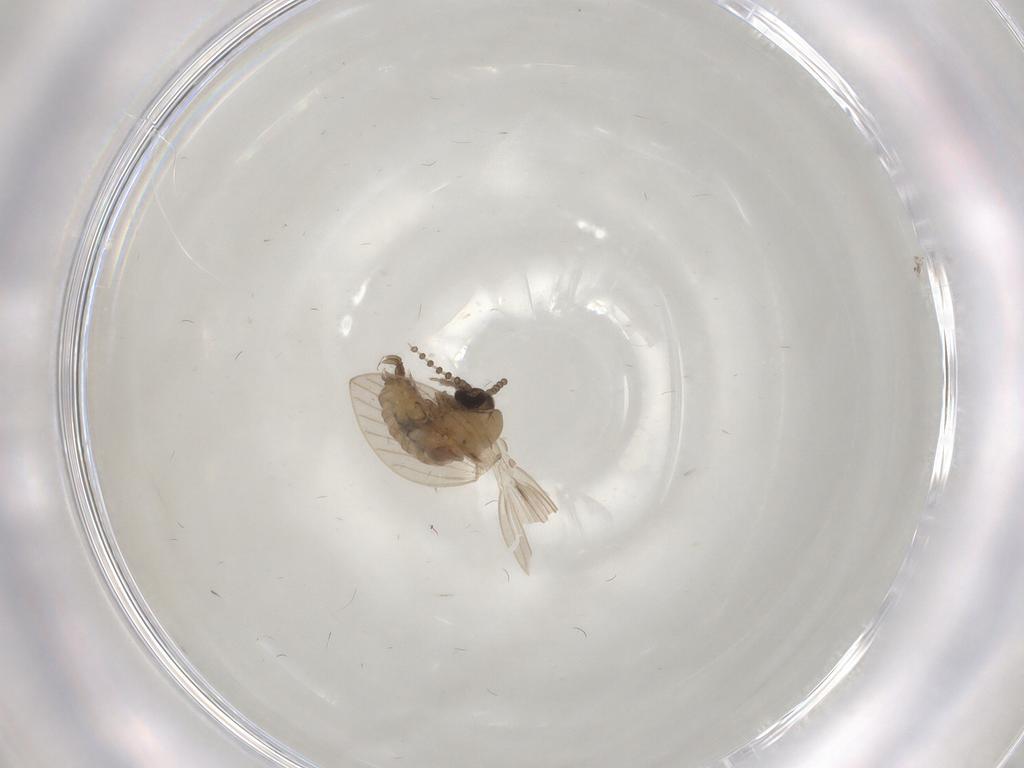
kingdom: Animalia
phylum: Arthropoda
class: Insecta
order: Diptera
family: Psychodidae
